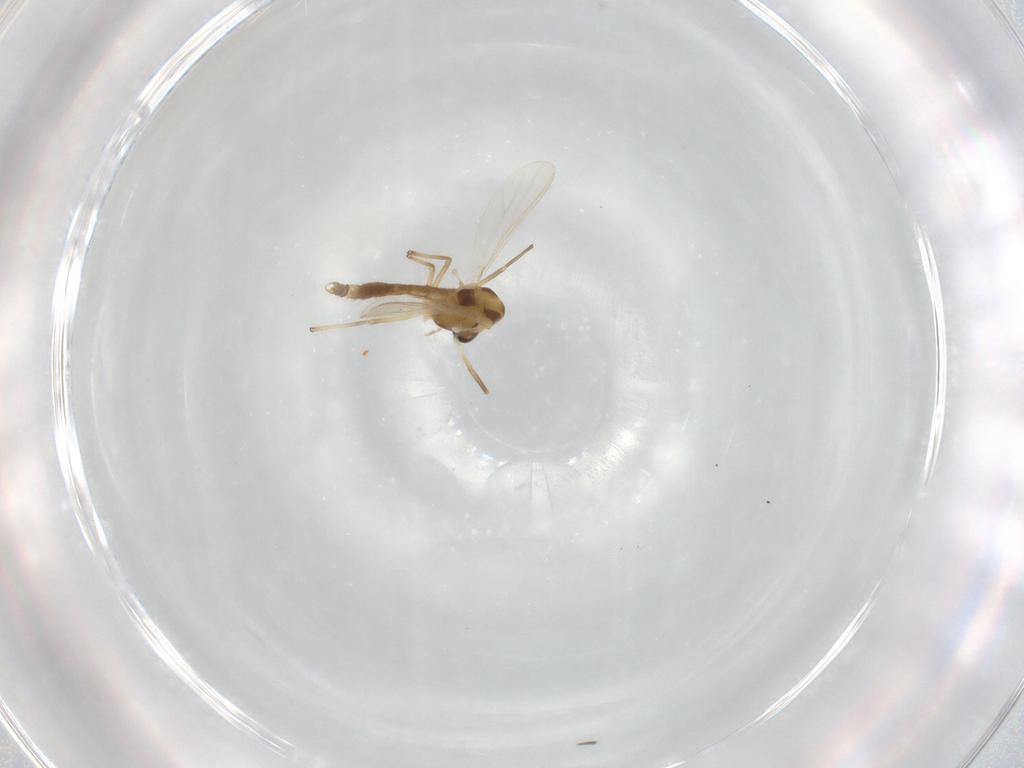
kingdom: Animalia
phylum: Arthropoda
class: Insecta
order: Diptera
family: Chironomidae
